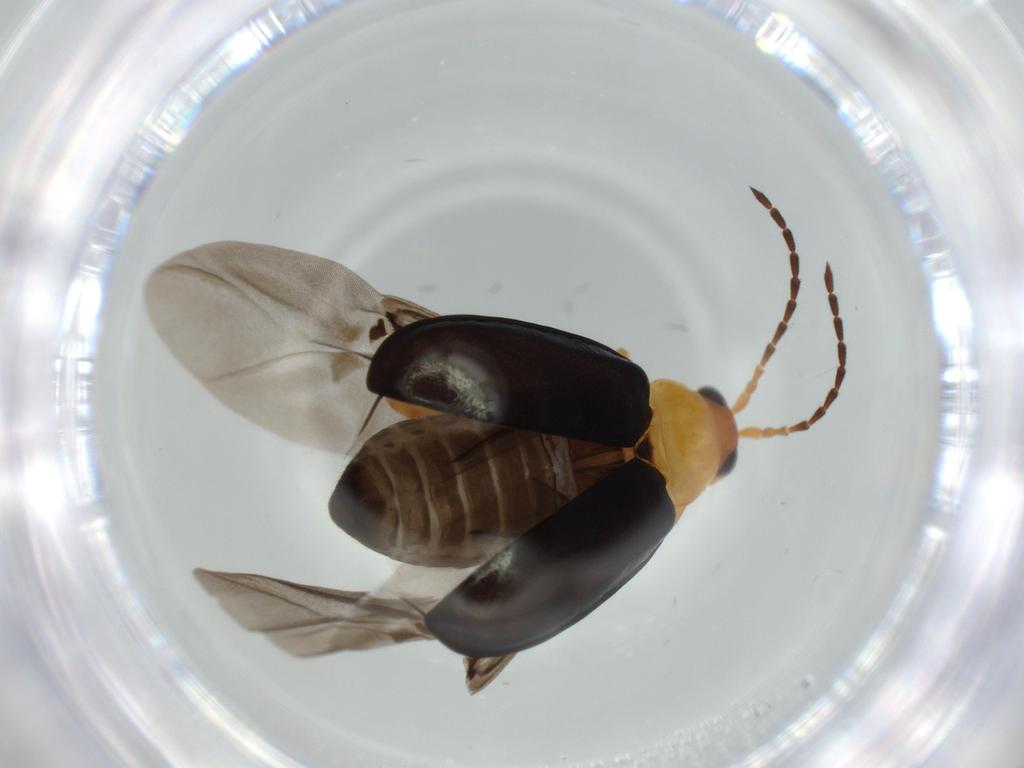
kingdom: Animalia
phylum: Arthropoda
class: Insecta
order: Coleoptera
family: Chrysomelidae
